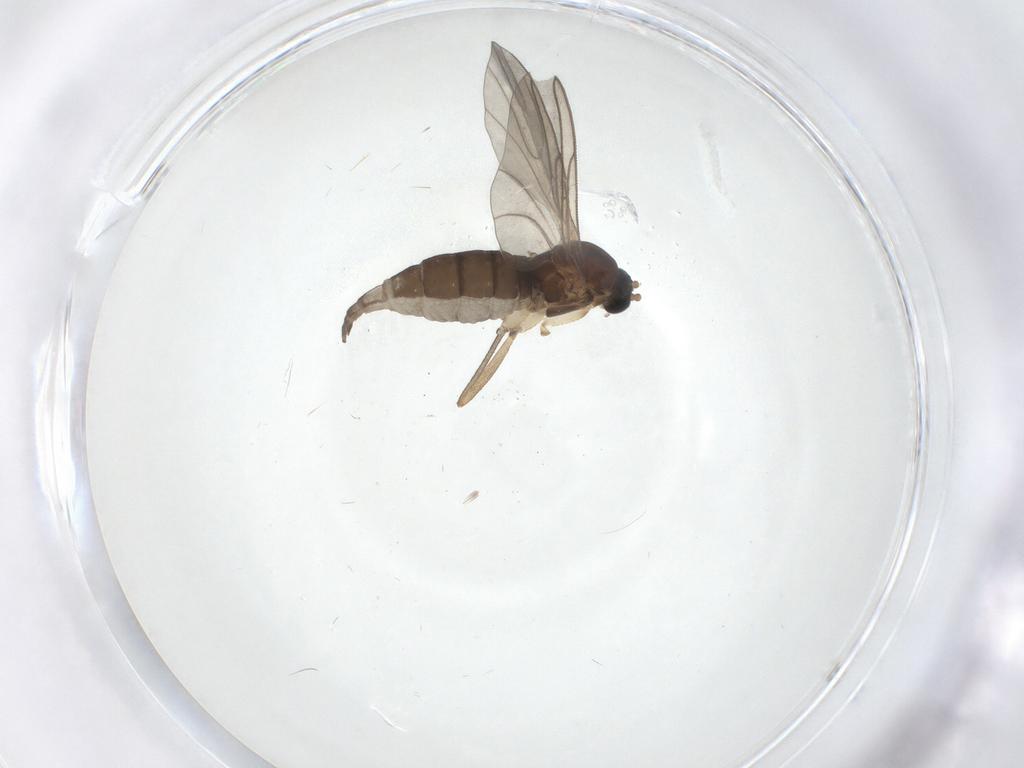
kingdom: Animalia
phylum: Arthropoda
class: Insecta
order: Diptera
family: Sciaridae
